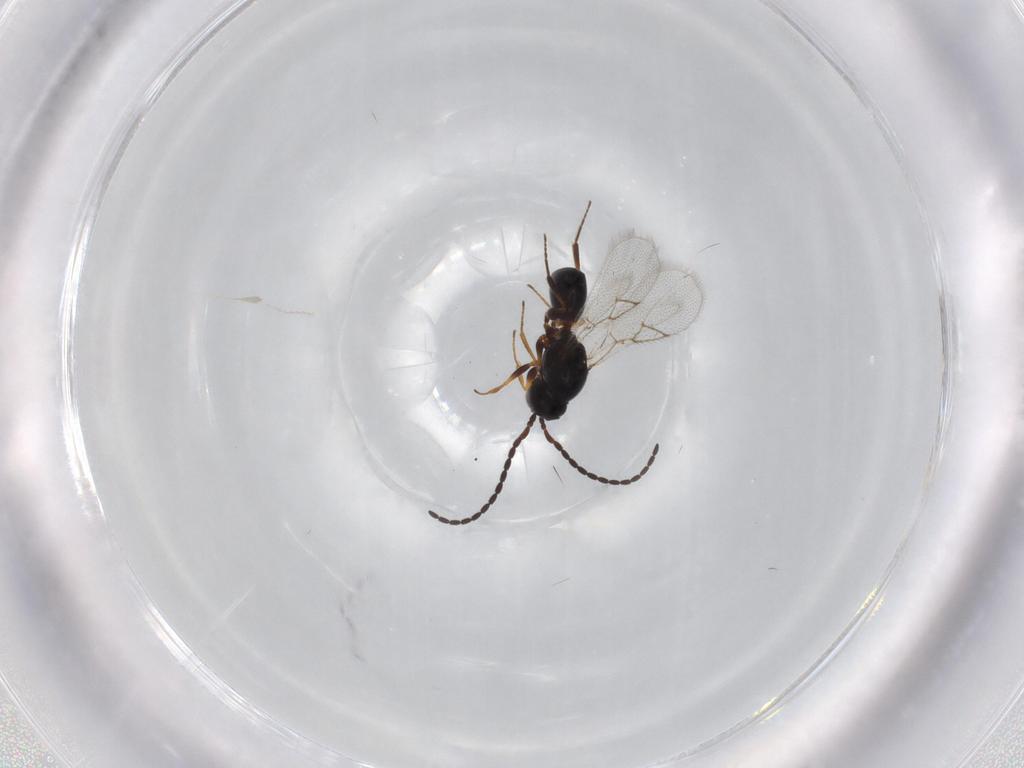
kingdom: Animalia
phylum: Arthropoda
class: Insecta
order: Hymenoptera
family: Figitidae
